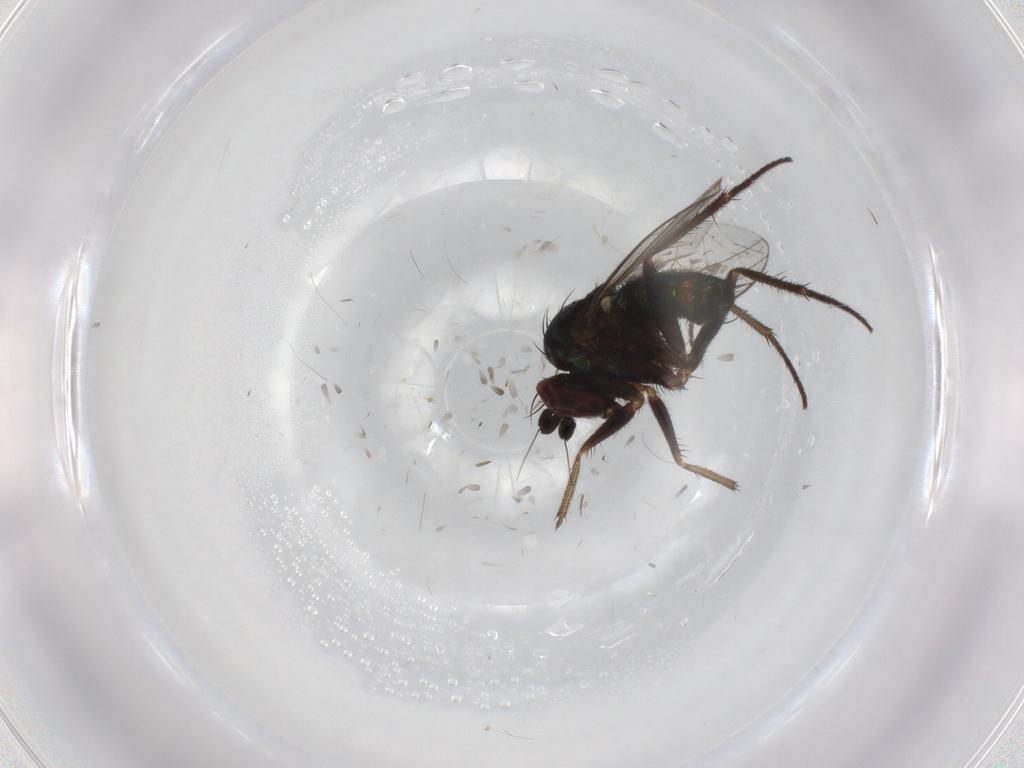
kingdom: Animalia
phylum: Arthropoda
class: Insecta
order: Diptera
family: Dolichopodidae
